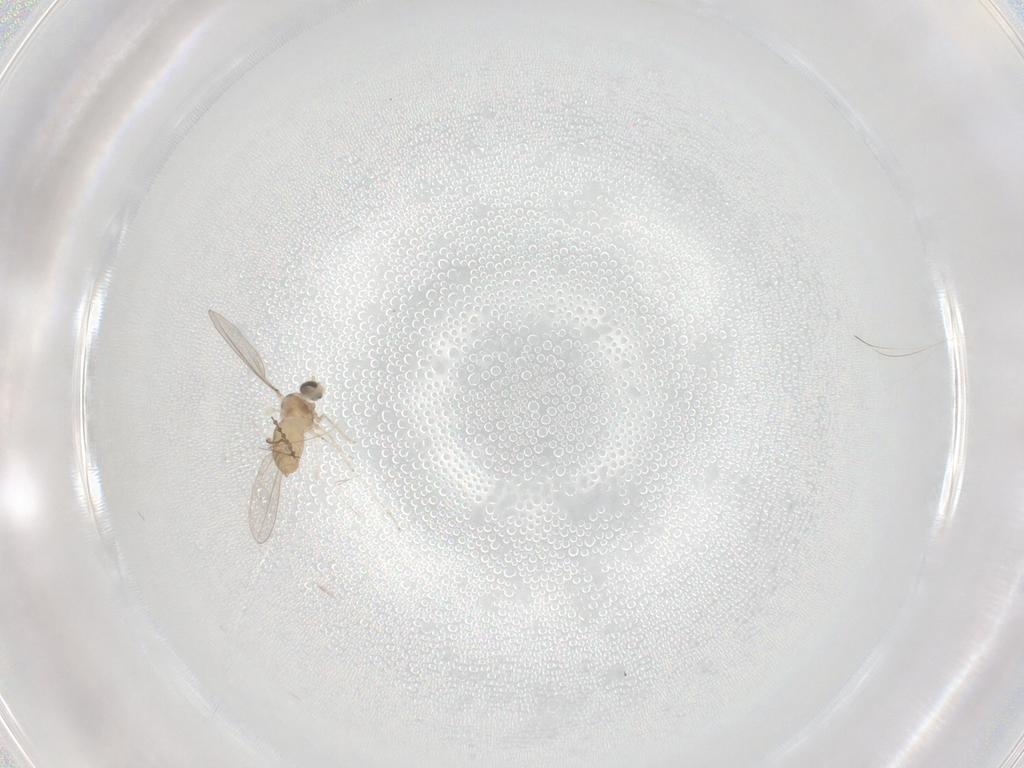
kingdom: Animalia
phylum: Arthropoda
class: Insecta
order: Diptera
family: Cecidomyiidae
